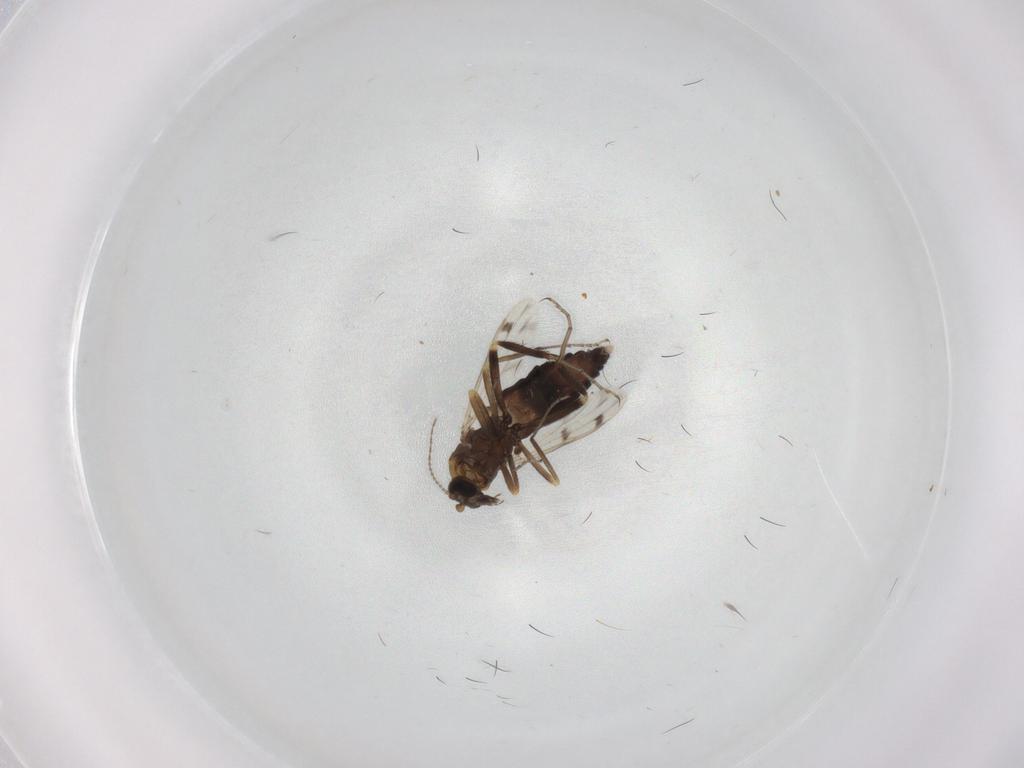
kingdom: Animalia
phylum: Arthropoda
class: Insecta
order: Diptera
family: Ceratopogonidae
